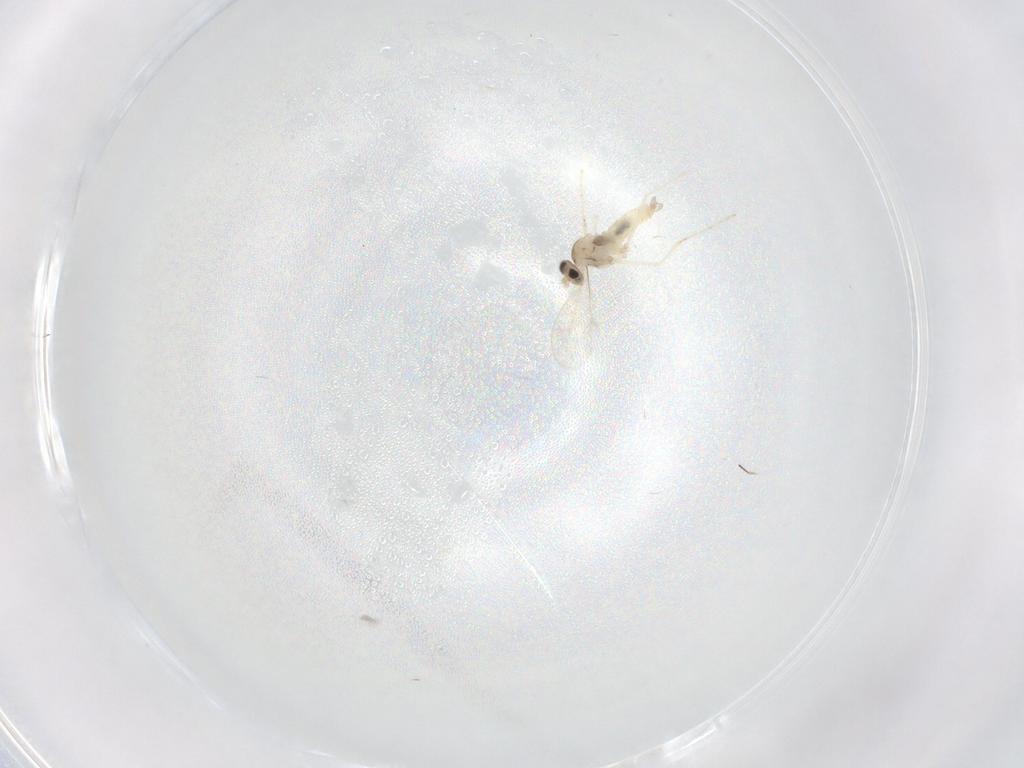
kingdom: Animalia
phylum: Arthropoda
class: Insecta
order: Diptera
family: Cecidomyiidae
